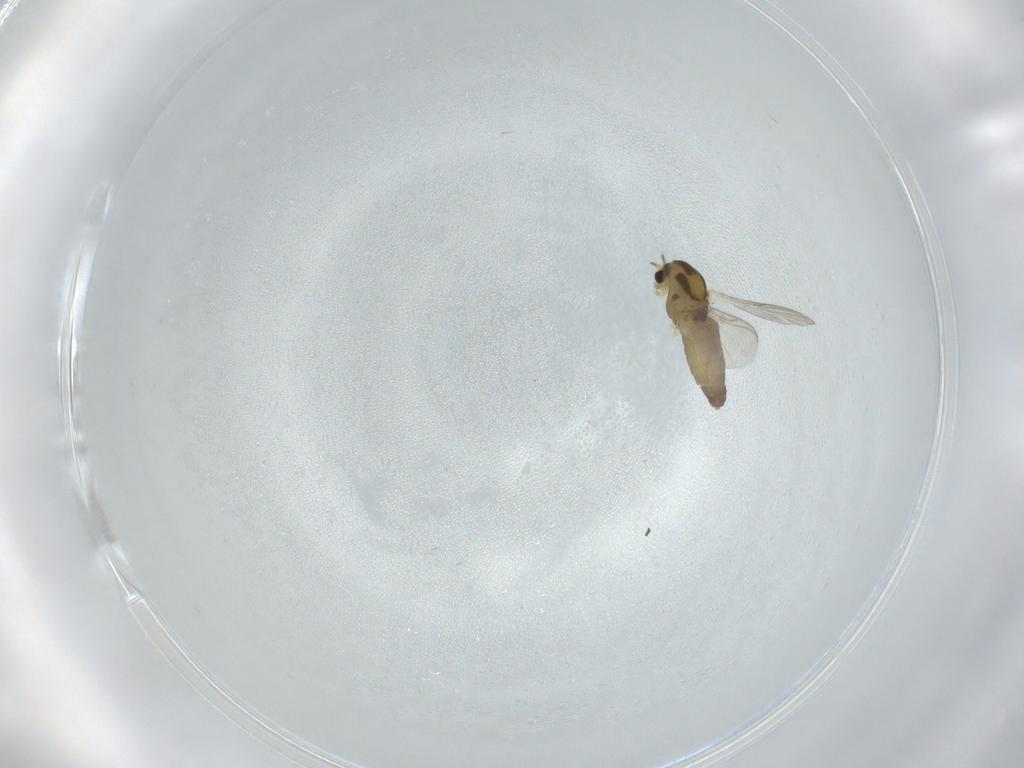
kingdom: Animalia
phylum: Arthropoda
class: Insecta
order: Diptera
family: Sciaridae
